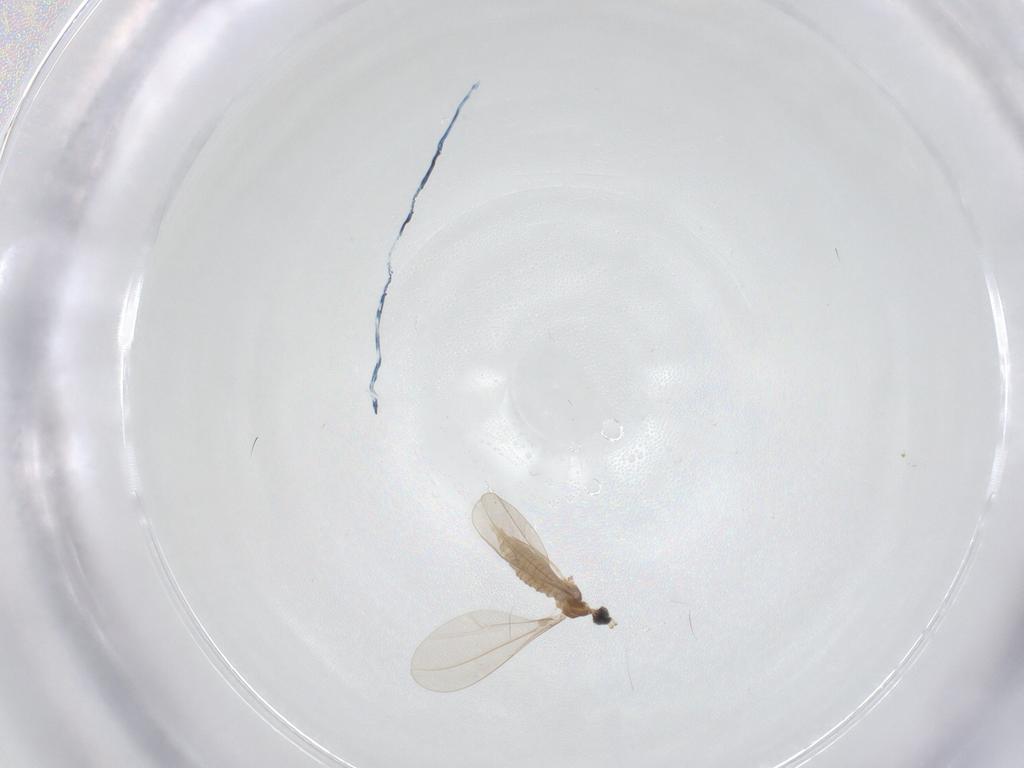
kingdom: Animalia
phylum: Arthropoda
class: Insecta
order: Diptera
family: Cecidomyiidae
